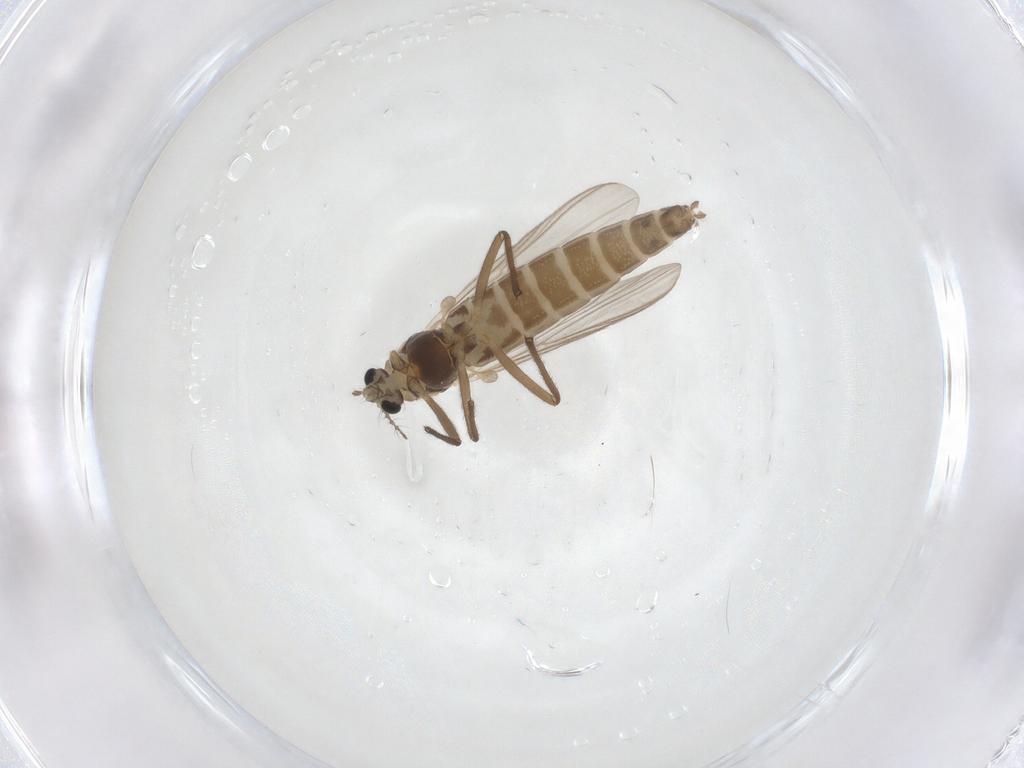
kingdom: Animalia
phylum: Arthropoda
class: Insecta
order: Diptera
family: Chironomidae
